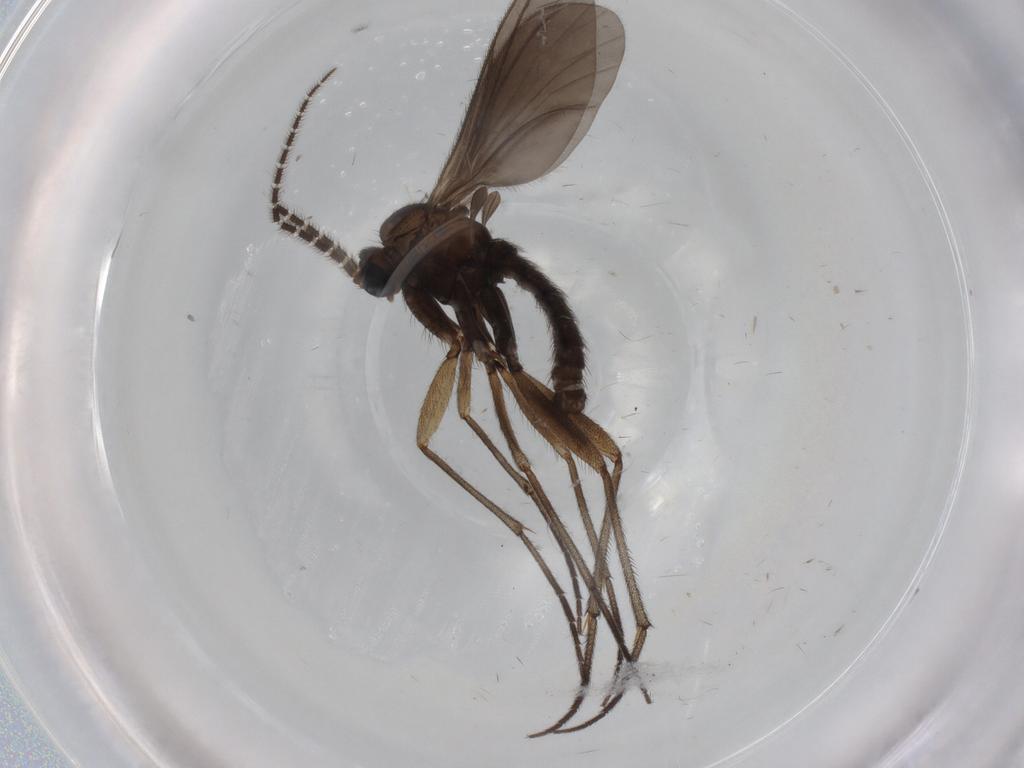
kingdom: Animalia
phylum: Arthropoda
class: Insecta
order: Diptera
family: Sciaridae
